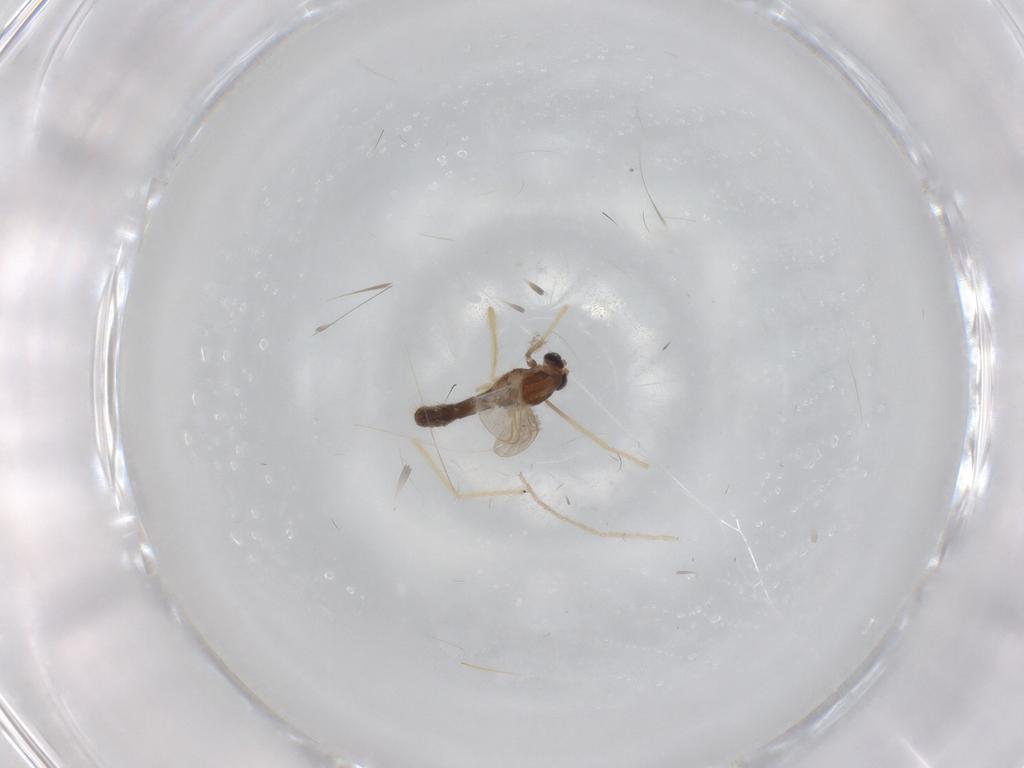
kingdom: Animalia
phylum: Arthropoda
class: Insecta
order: Diptera
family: Chironomidae
